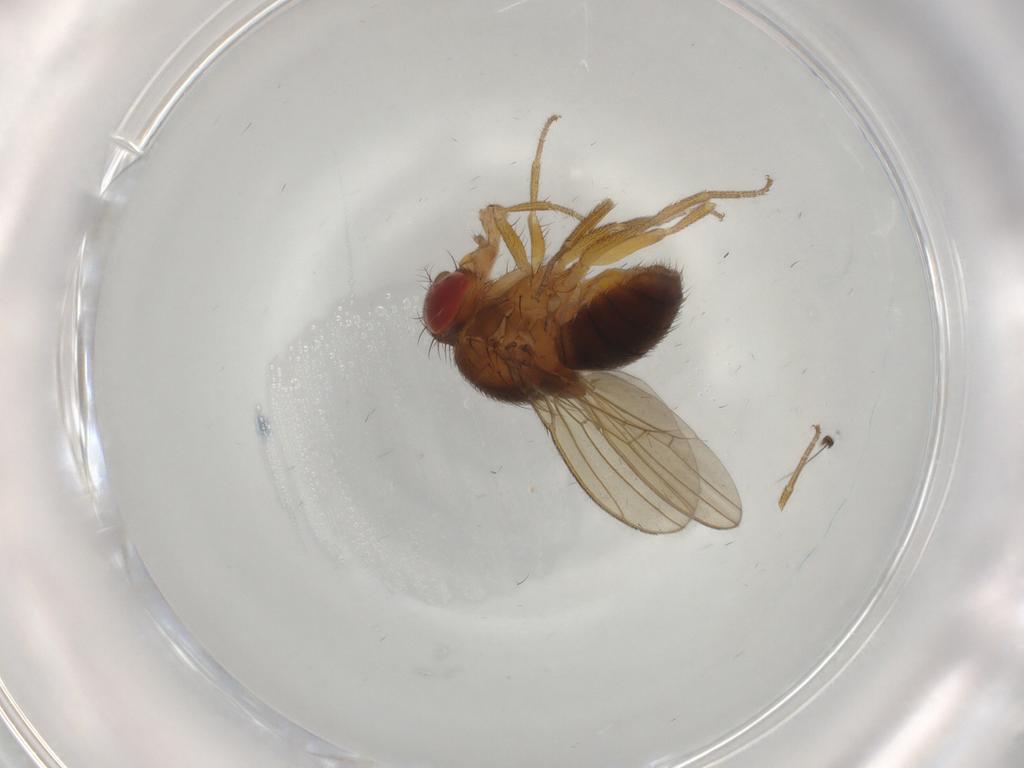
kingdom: Animalia
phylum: Arthropoda
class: Insecta
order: Diptera
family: Drosophilidae
